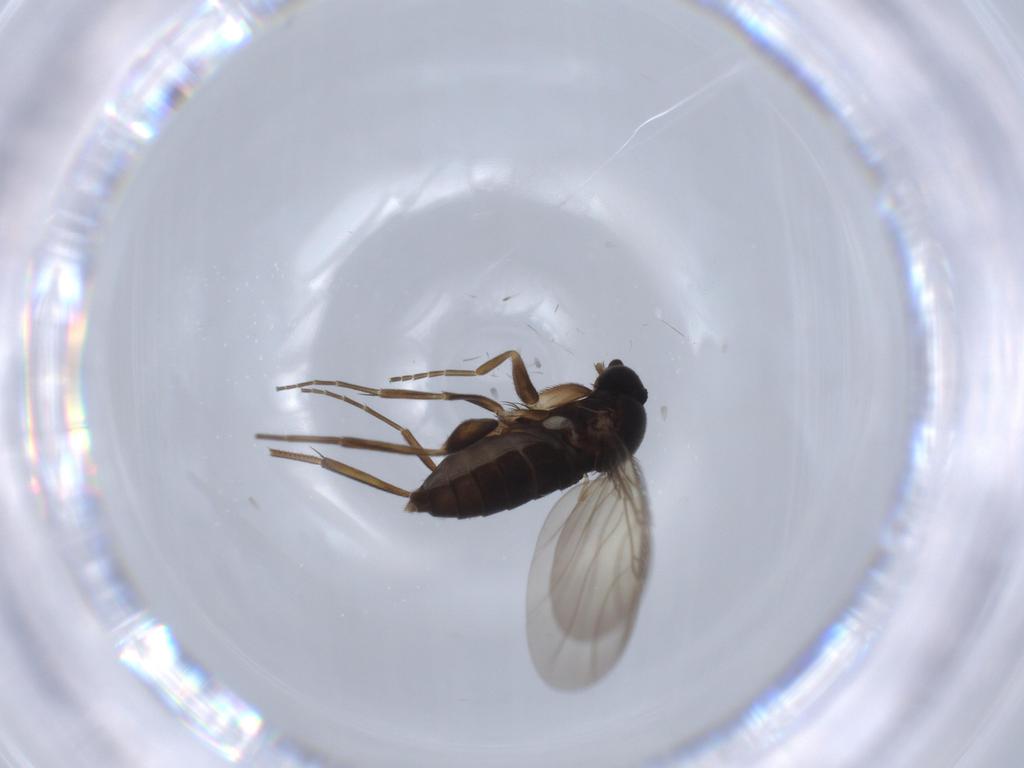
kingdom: Animalia
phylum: Arthropoda
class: Insecta
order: Diptera
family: Phoridae
